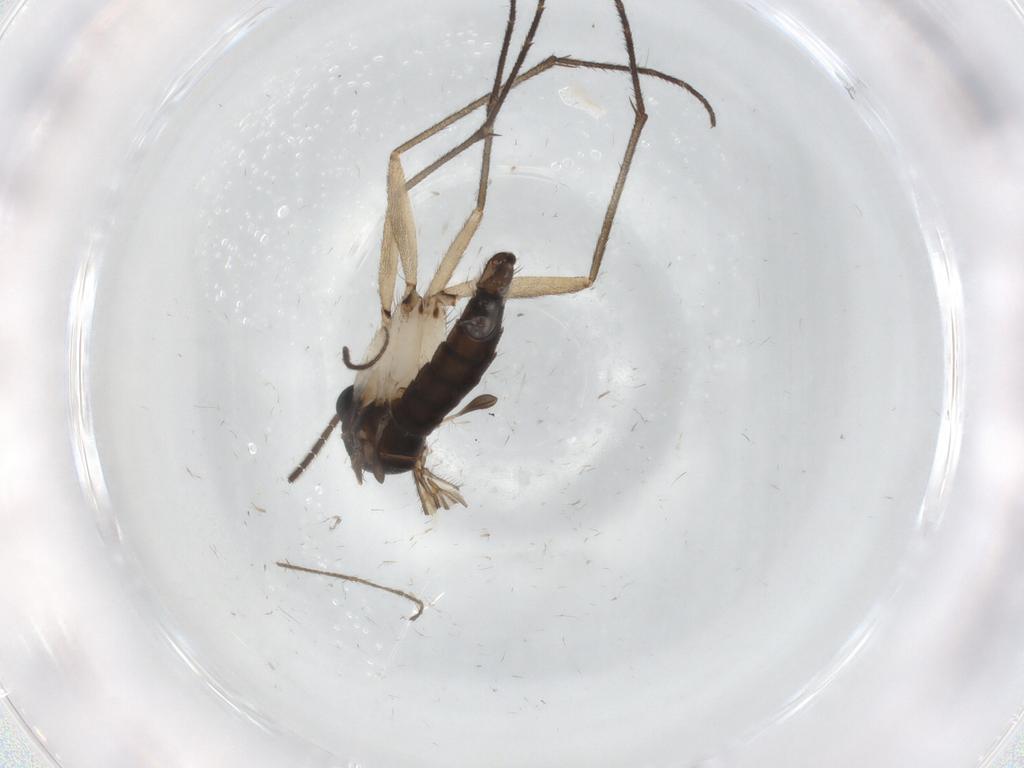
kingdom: Animalia
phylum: Arthropoda
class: Insecta
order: Diptera
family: Sciaridae
